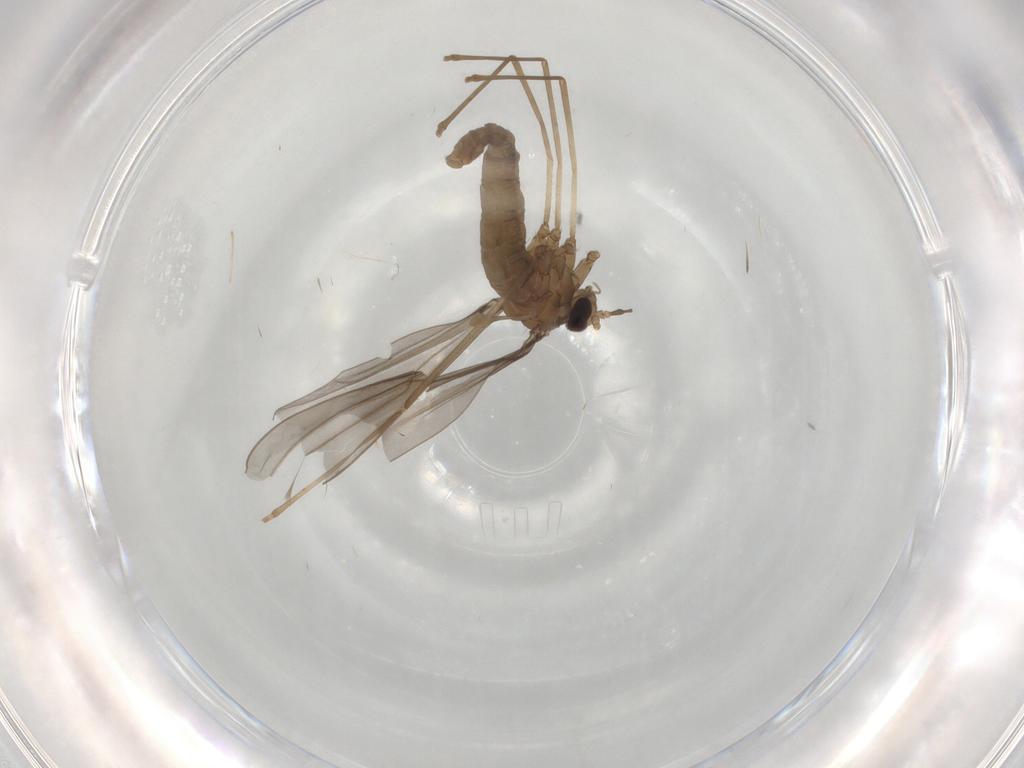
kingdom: Animalia
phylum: Arthropoda
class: Insecta
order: Diptera
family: Cecidomyiidae
